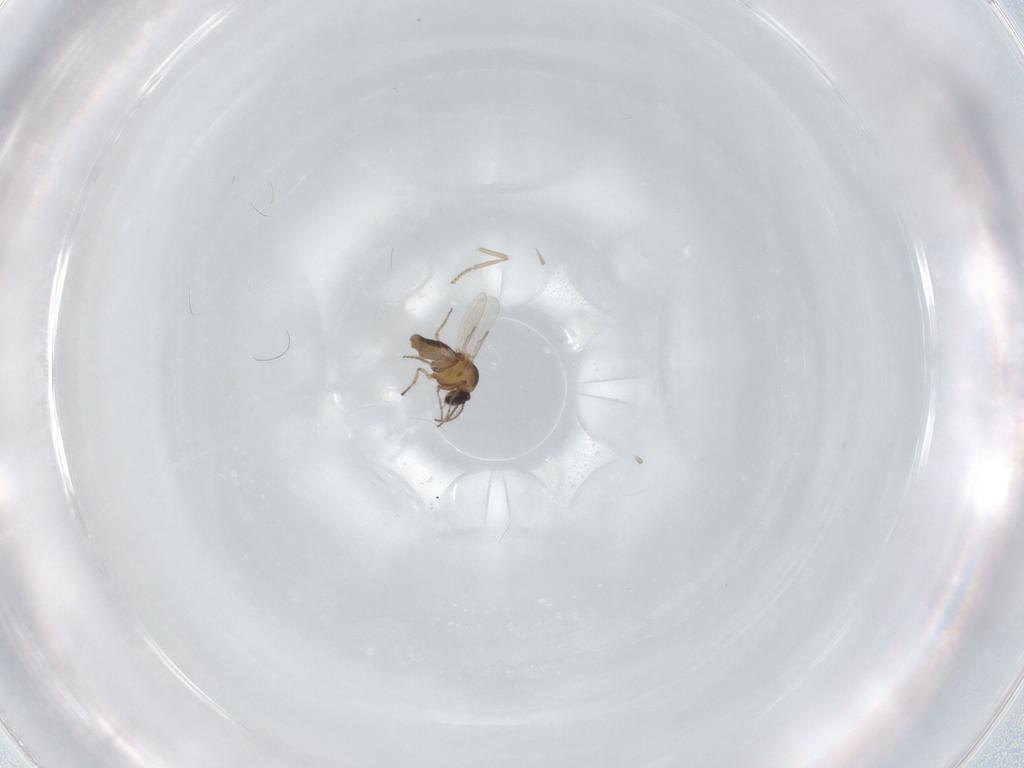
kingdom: Animalia
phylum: Arthropoda
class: Insecta
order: Diptera
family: Ceratopogonidae
